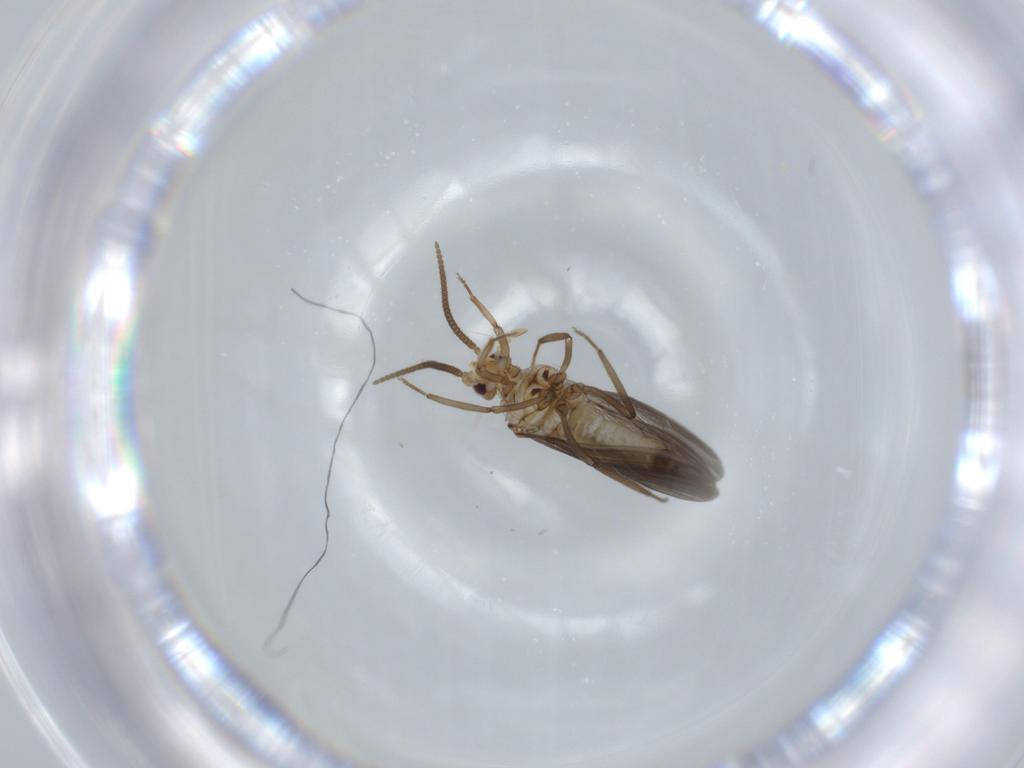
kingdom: Animalia
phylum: Arthropoda
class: Insecta
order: Neuroptera
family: Coniopterygidae
